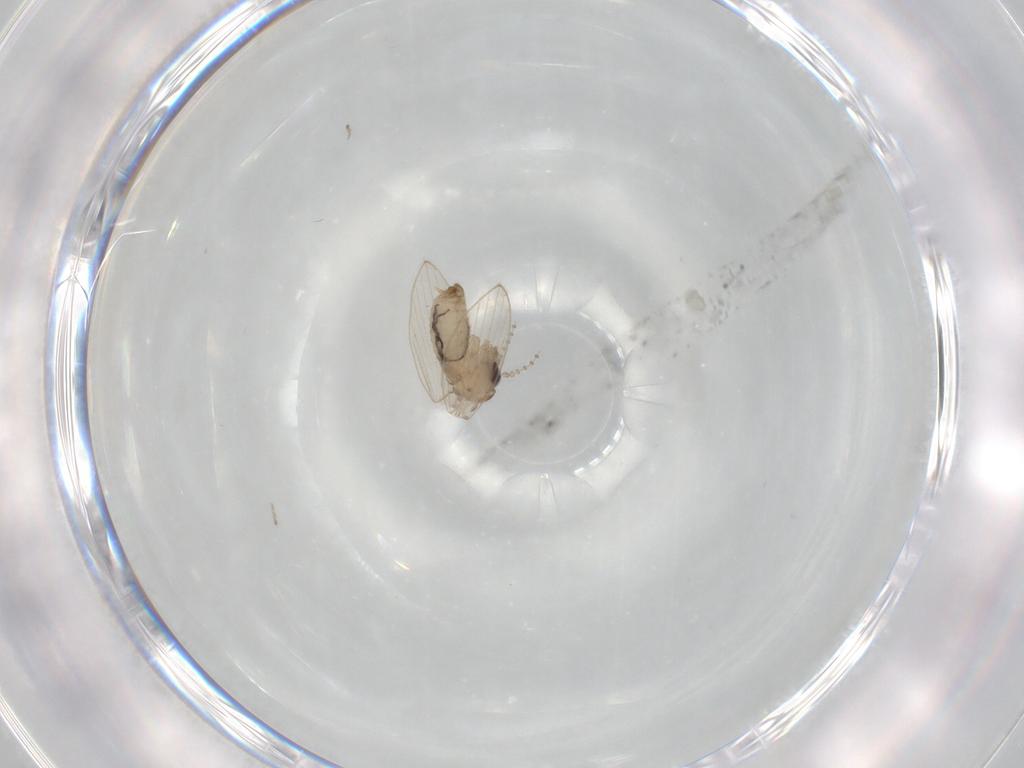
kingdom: Animalia
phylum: Arthropoda
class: Insecta
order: Diptera
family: Psychodidae
